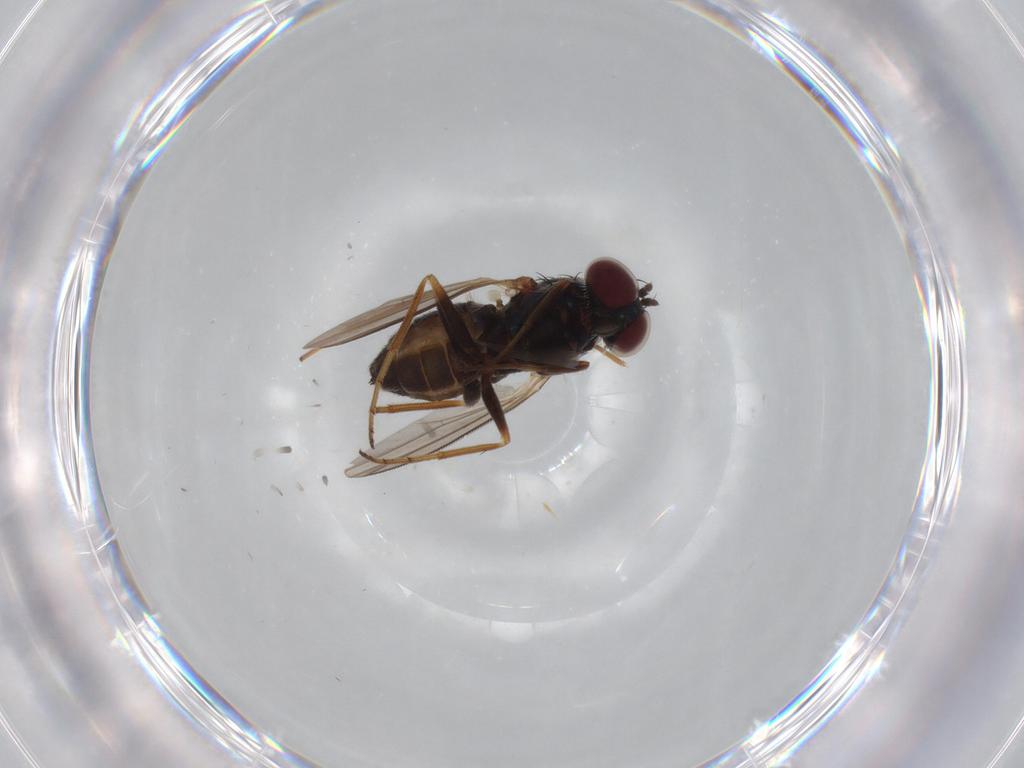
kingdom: Animalia
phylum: Arthropoda
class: Insecta
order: Diptera
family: Dolichopodidae
